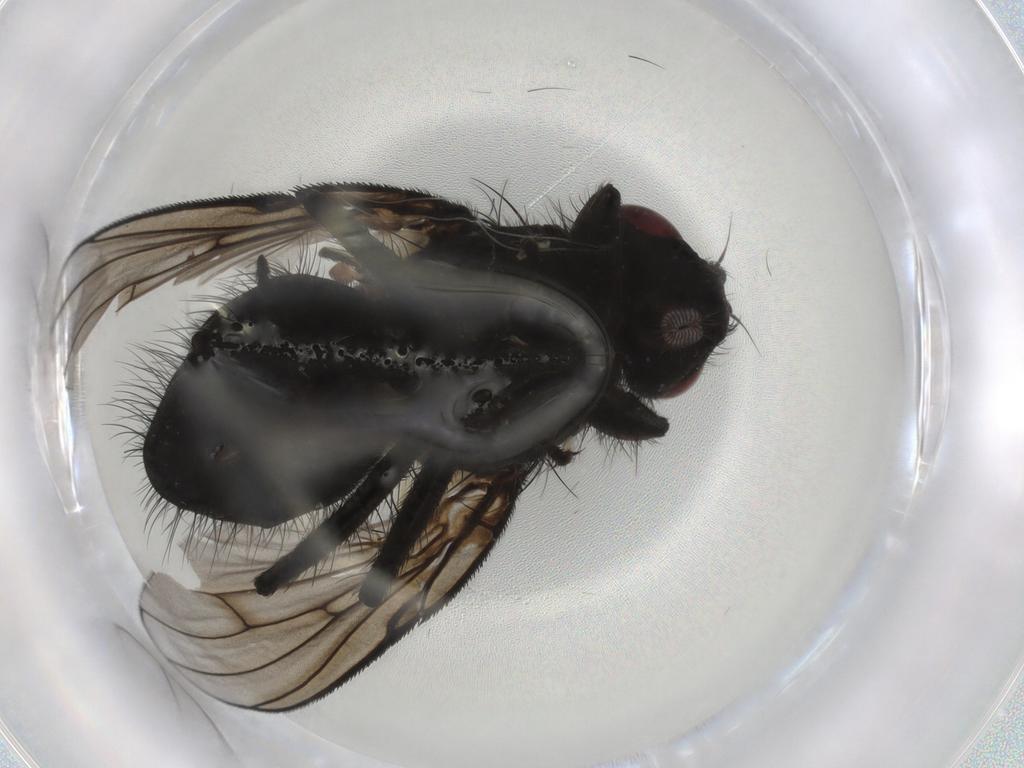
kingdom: Animalia
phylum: Arthropoda
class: Insecta
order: Diptera
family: Muscidae
